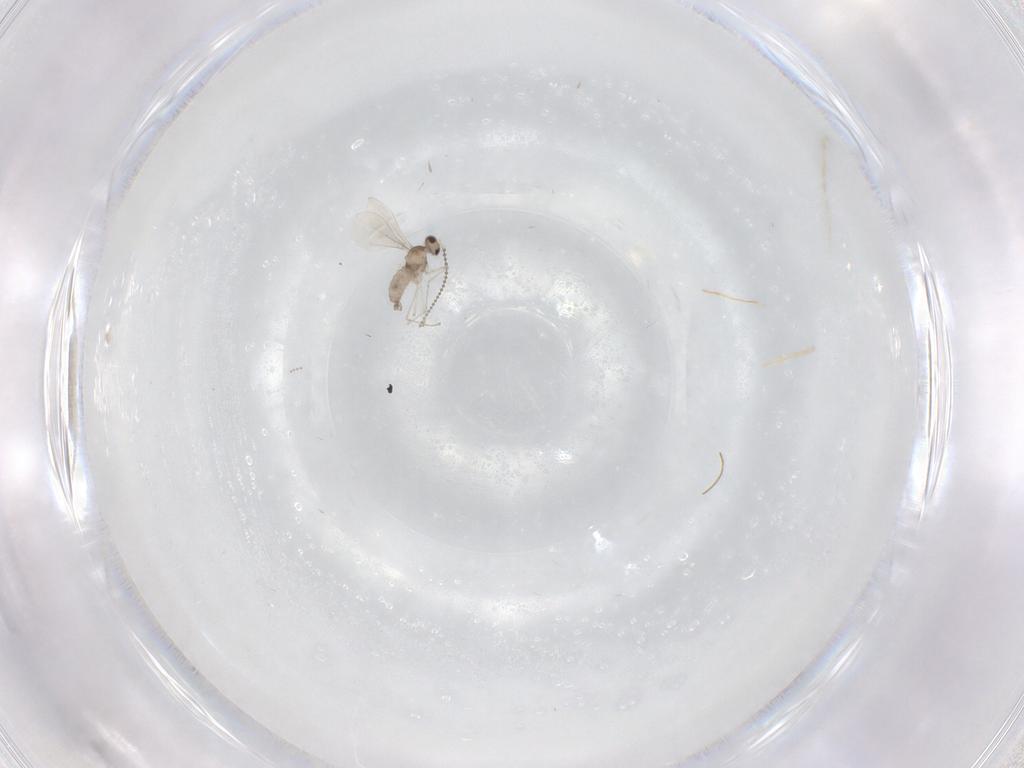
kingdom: Animalia
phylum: Arthropoda
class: Insecta
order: Diptera
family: Cecidomyiidae
